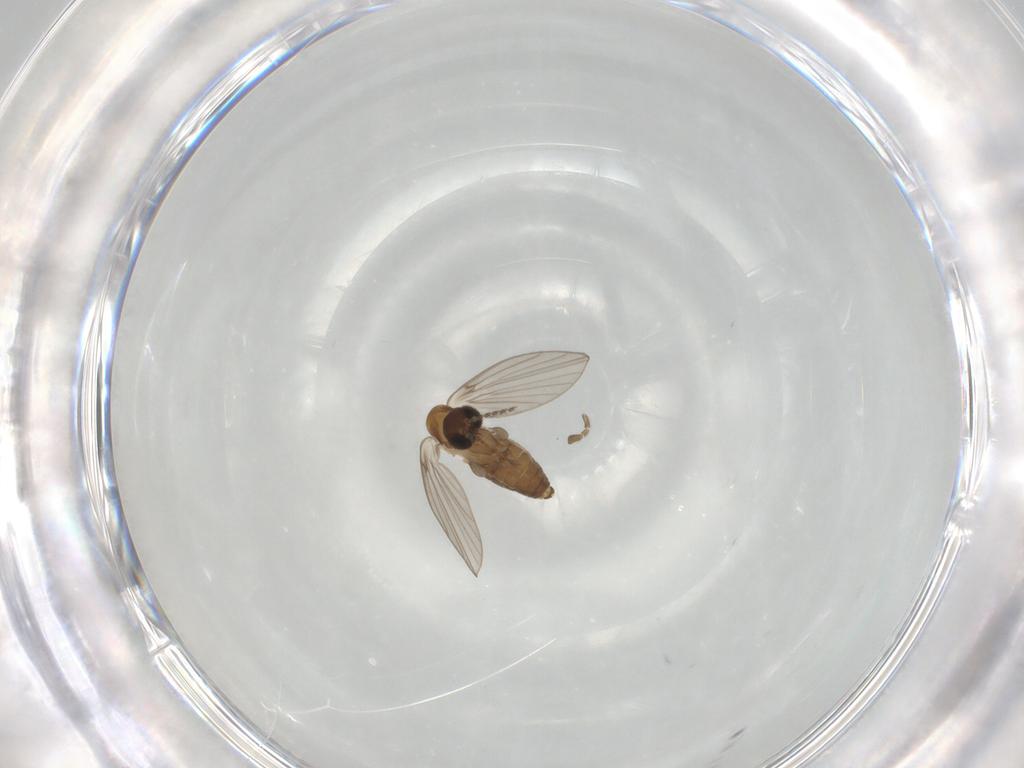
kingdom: Animalia
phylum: Arthropoda
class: Insecta
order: Diptera
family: Psychodidae
